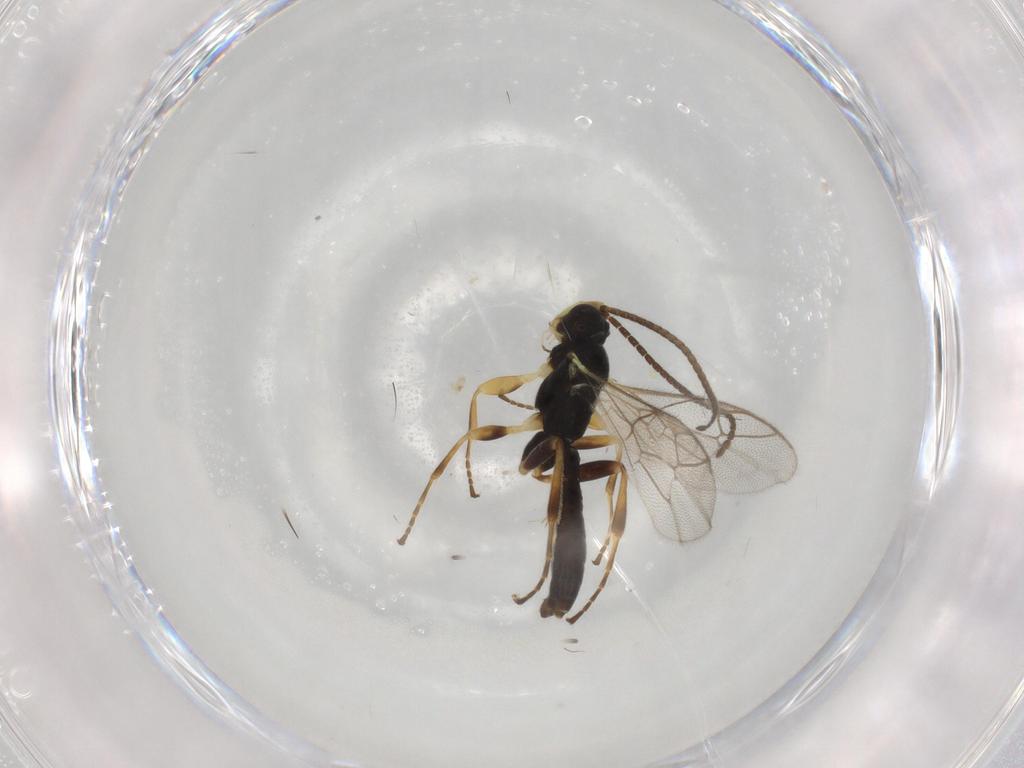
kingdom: Animalia
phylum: Arthropoda
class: Insecta
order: Hymenoptera
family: Ichneumonidae
